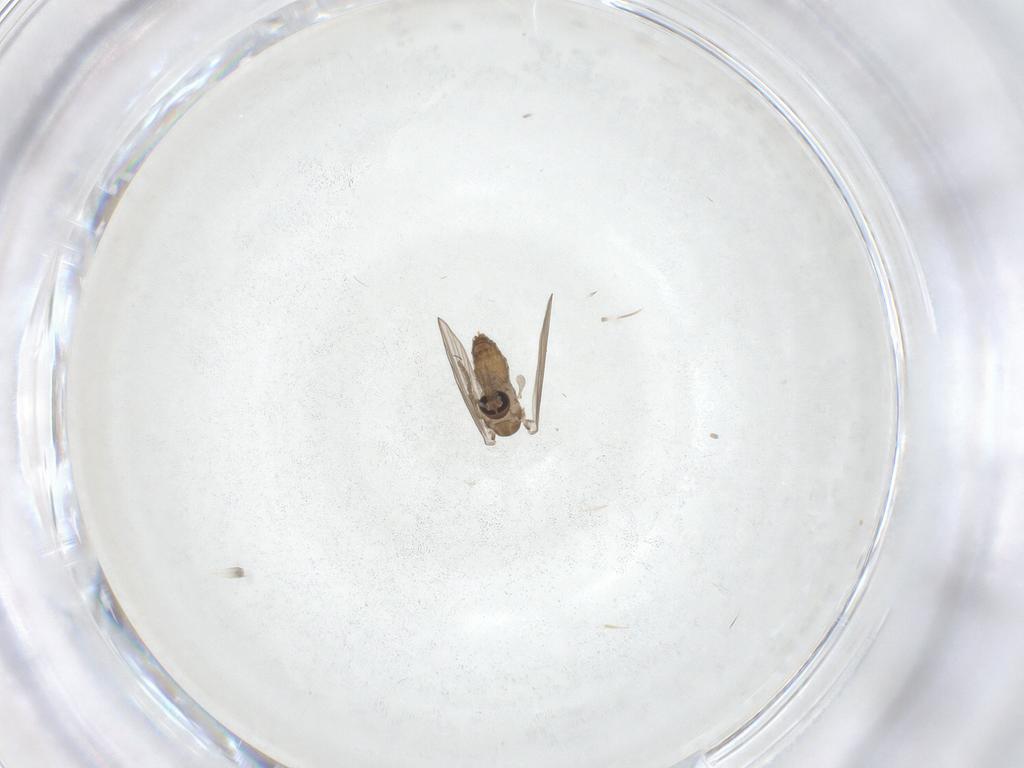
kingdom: Animalia
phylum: Arthropoda
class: Insecta
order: Diptera
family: Psychodidae
